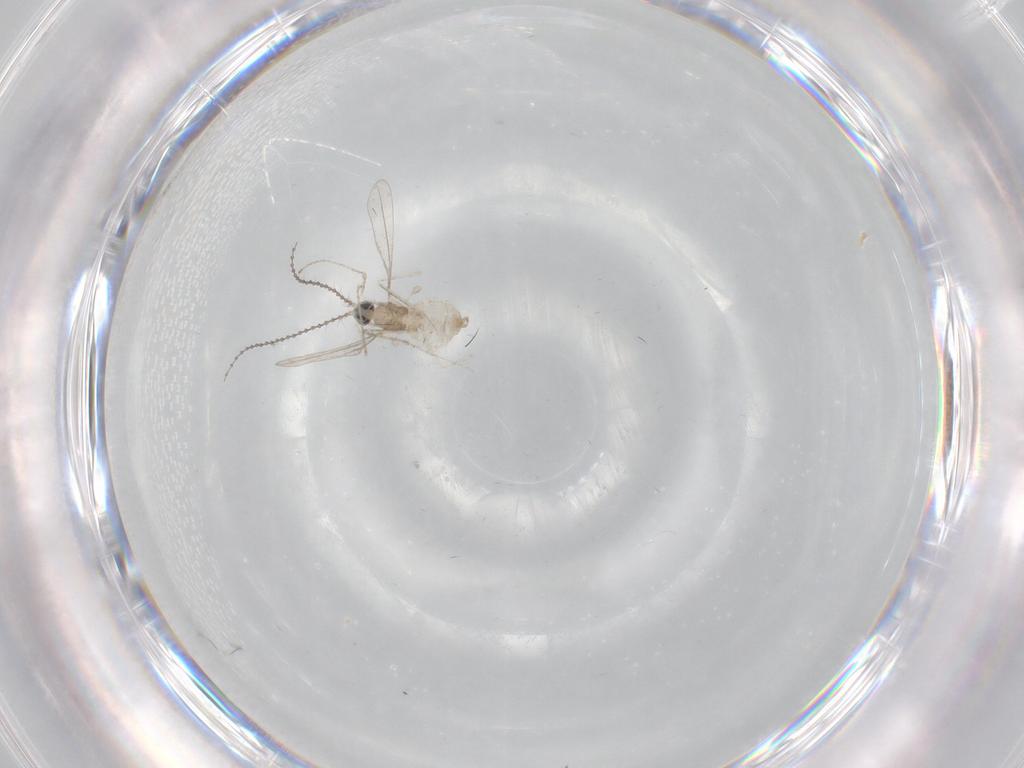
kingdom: Animalia
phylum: Arthropoda
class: Insecta
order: Diptera
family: Cecidomyiidae
